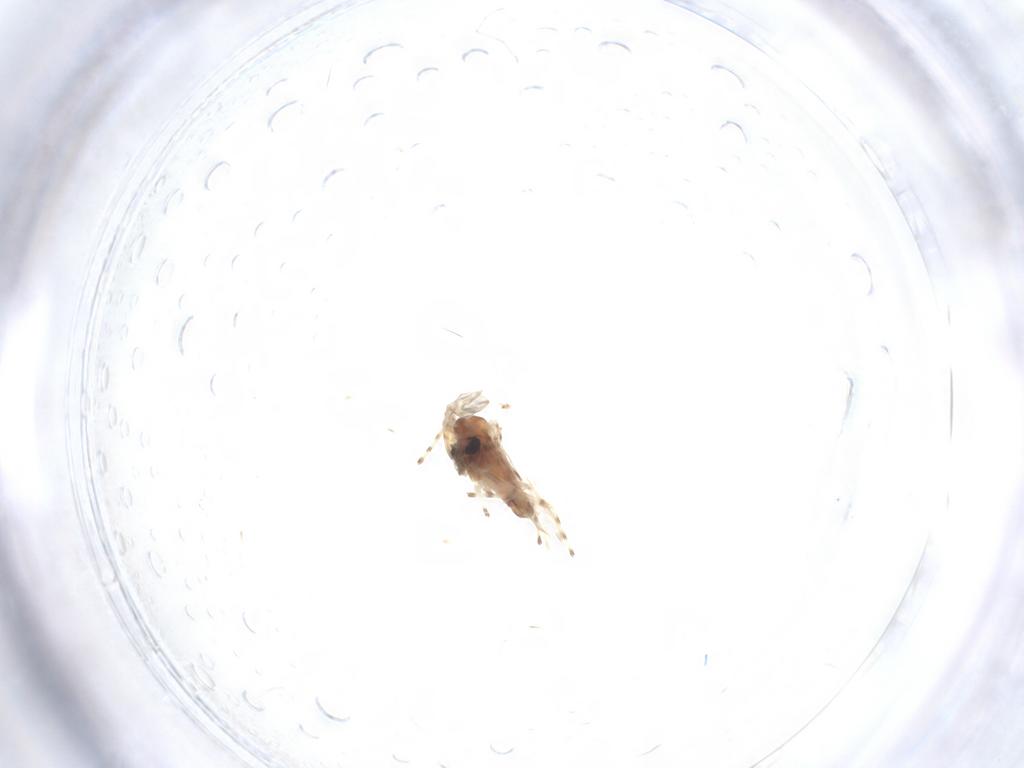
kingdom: Animalia
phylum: Arthropoda
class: Insecta
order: Diptera
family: Chironomidae
